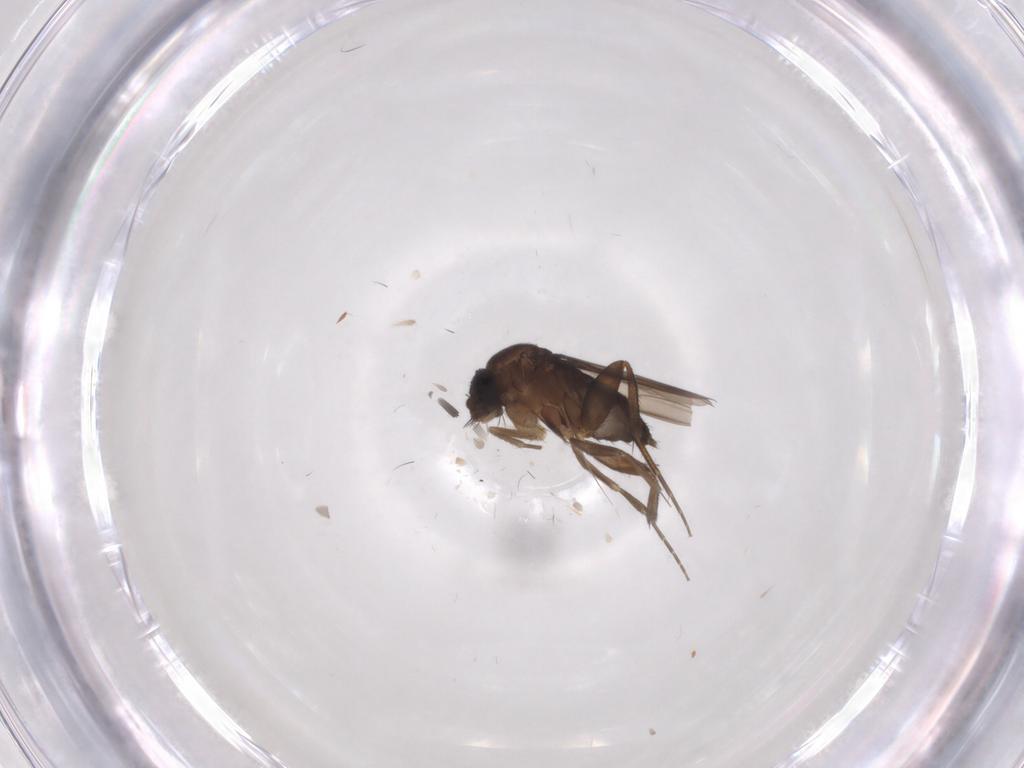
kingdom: Animalia
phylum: Arthropoda
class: Insecta
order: Diptera
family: Phoridae
